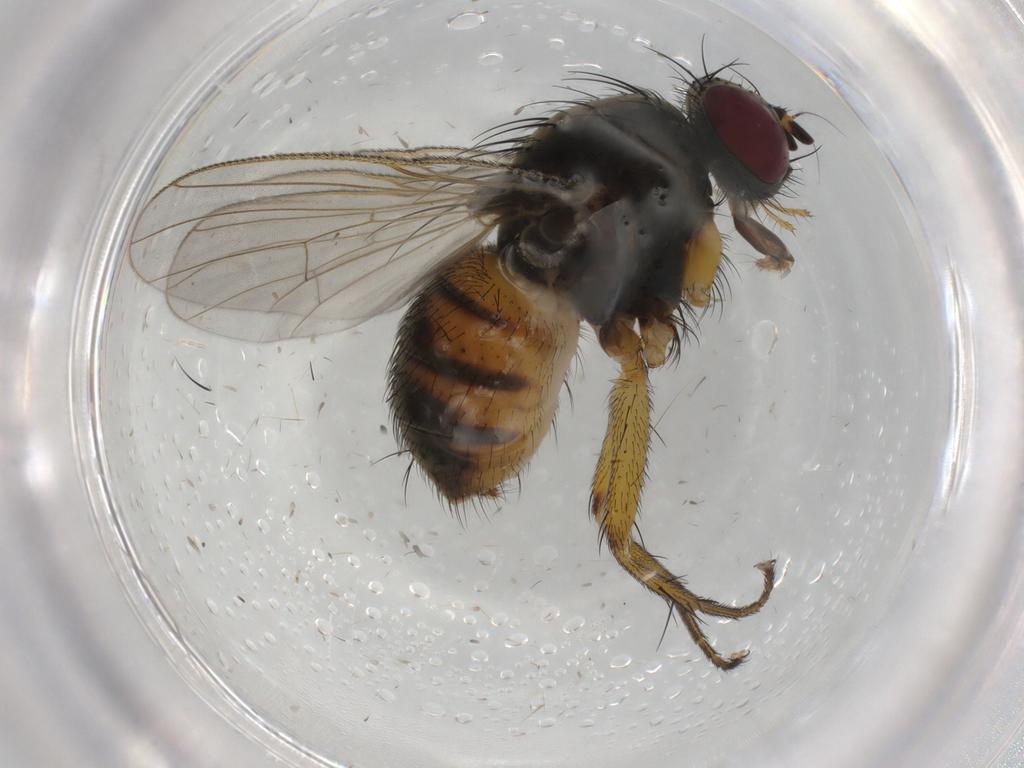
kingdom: Animalia
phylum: Arthropoda
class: Insecta
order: Diptera
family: Muscidae
